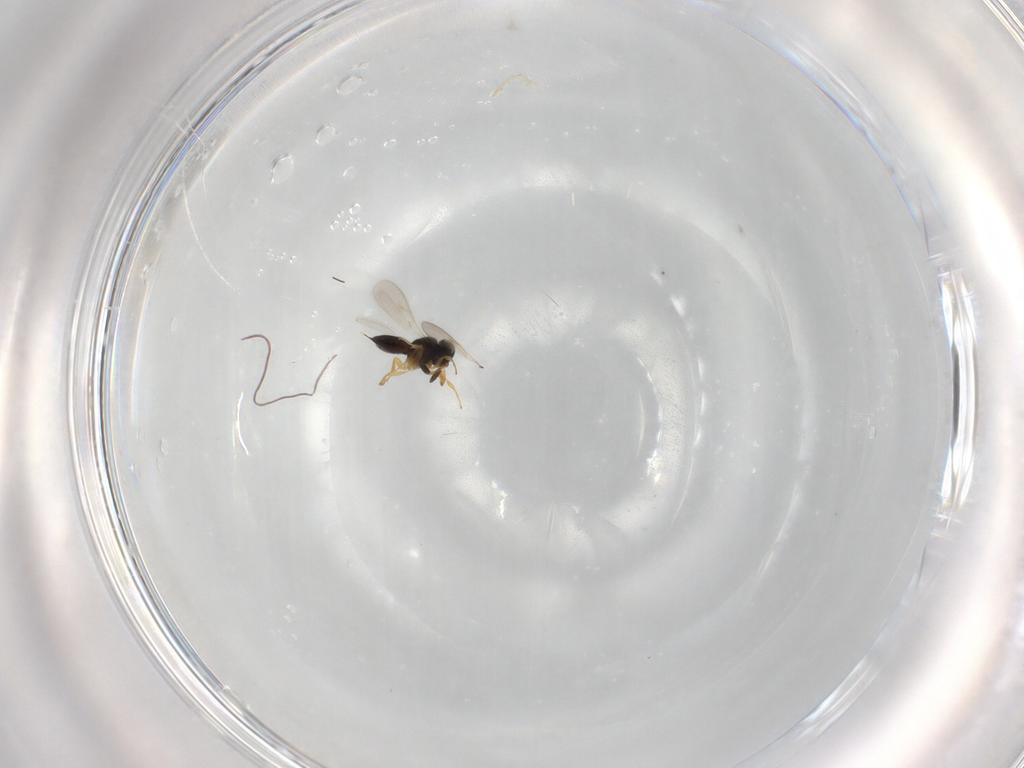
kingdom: Animalia
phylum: Arthropoda
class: Insecta
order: Hymenoptera
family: Scelionidae
